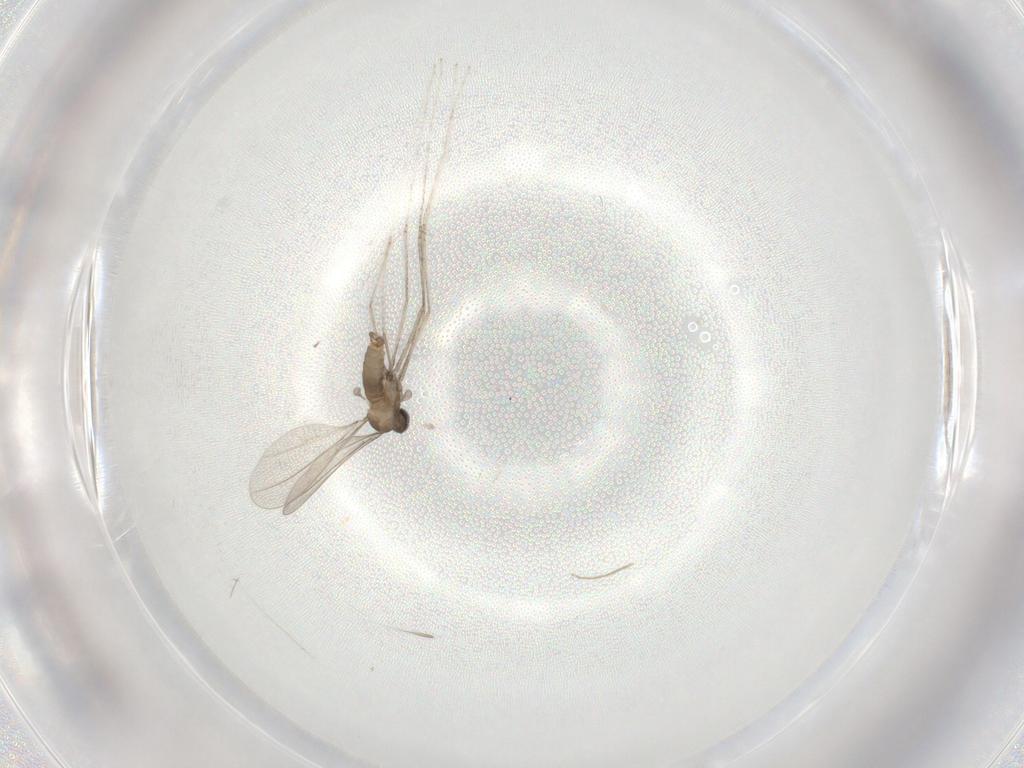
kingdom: Animalia
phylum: Arthropoda
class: Insecta
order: Diptera
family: Cecidomyiidae
